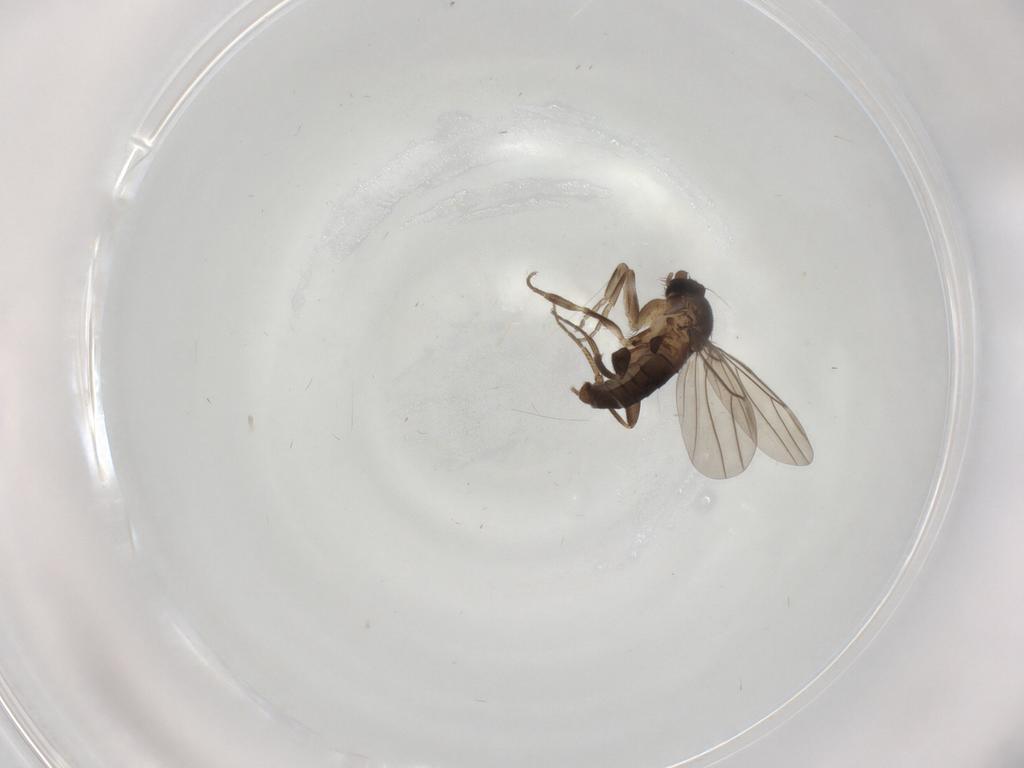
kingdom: Animalia
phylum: Arthropoda
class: Insecta
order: Diptera
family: Phoridae
